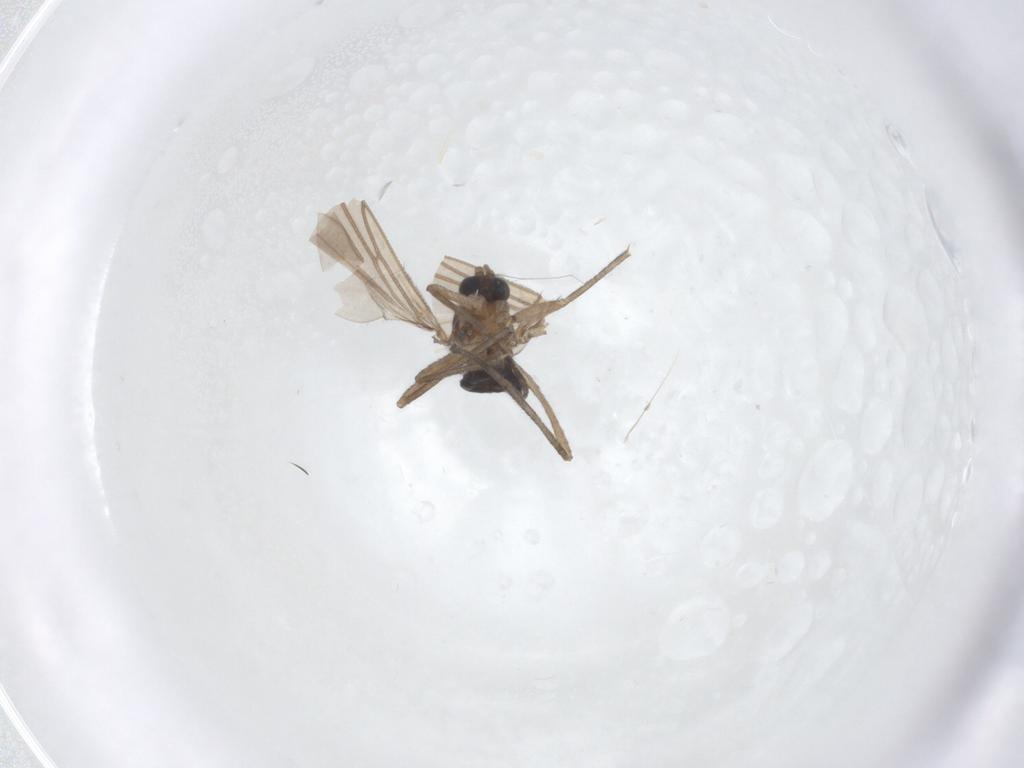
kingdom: Animalia
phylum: Arthropoda
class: Insecta
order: Diptera
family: Sciaridae
